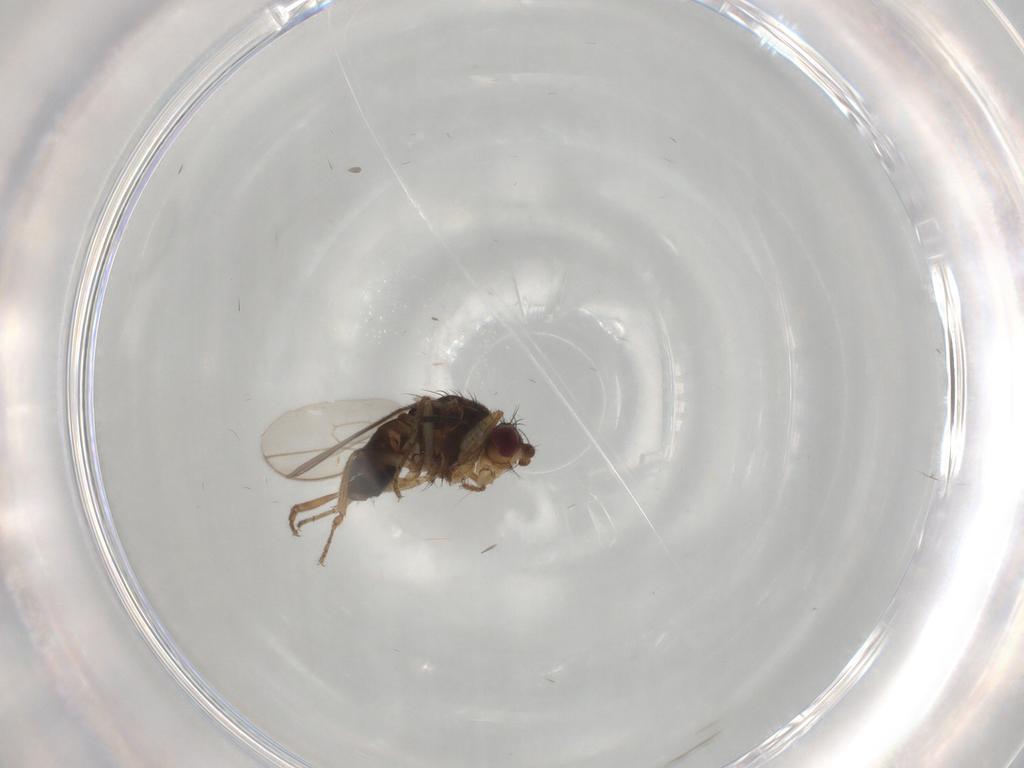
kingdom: Animalia
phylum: Arthropoda
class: Insecta
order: Diptera
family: Sphaeroceridae
